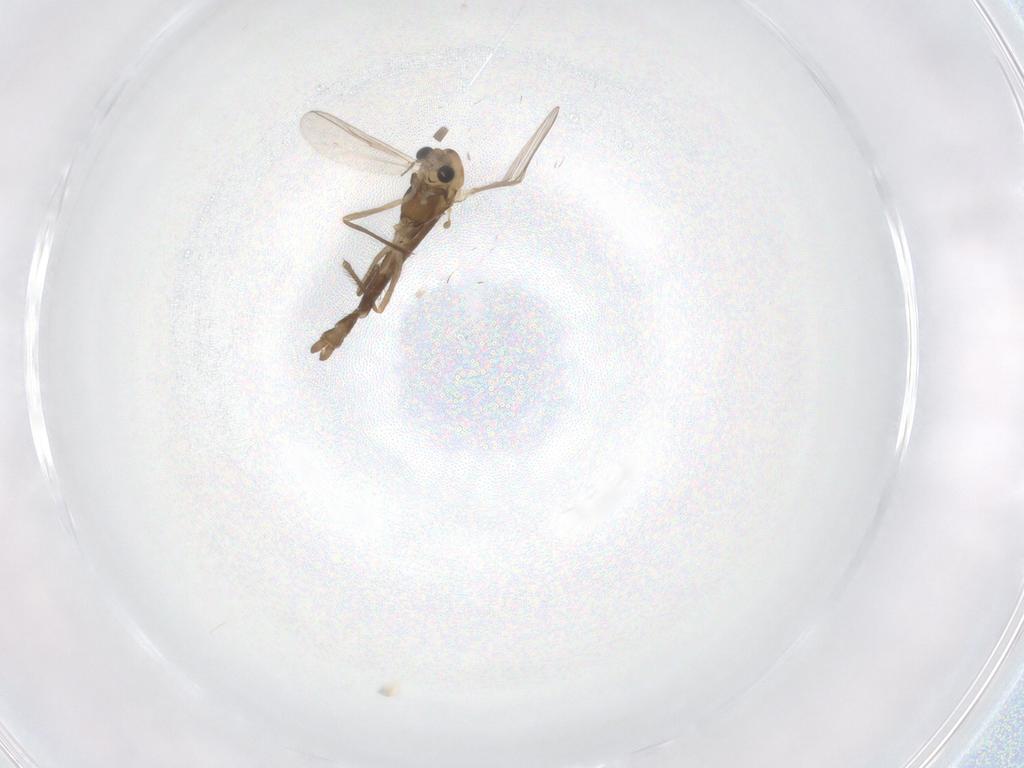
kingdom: Animalia
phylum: Arthropoda
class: Insecta
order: Diptera
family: Chironomidae
